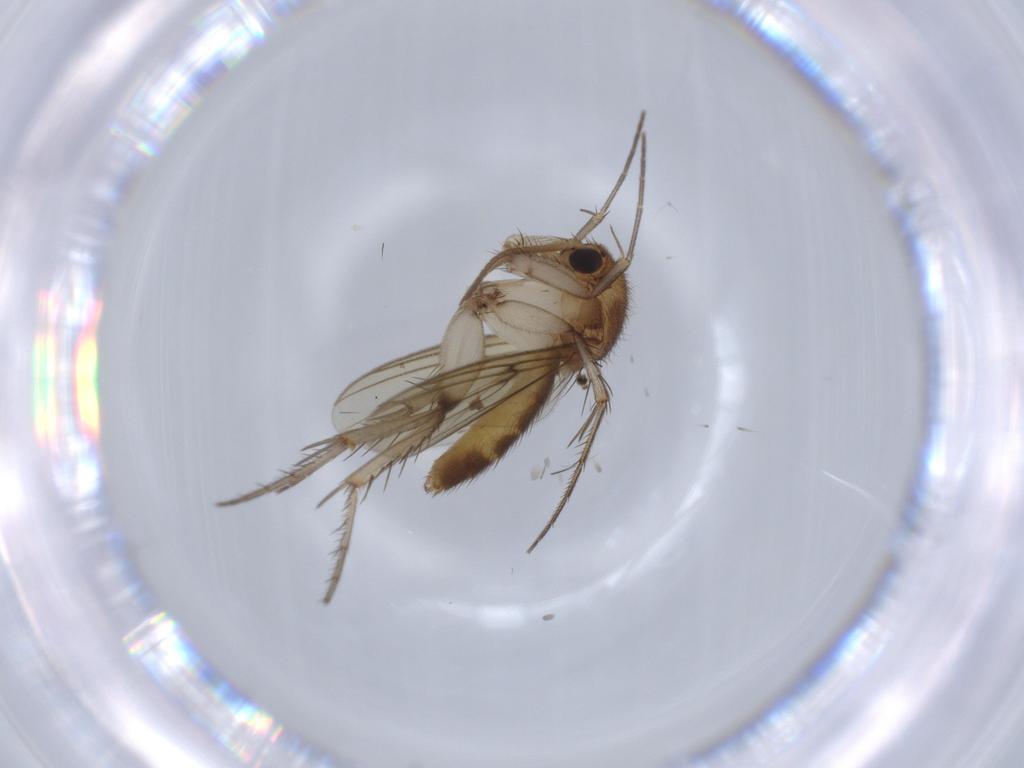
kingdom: Animalia
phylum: Arthropoda
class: Insecta
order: Diptera
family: Mycetophilidae
